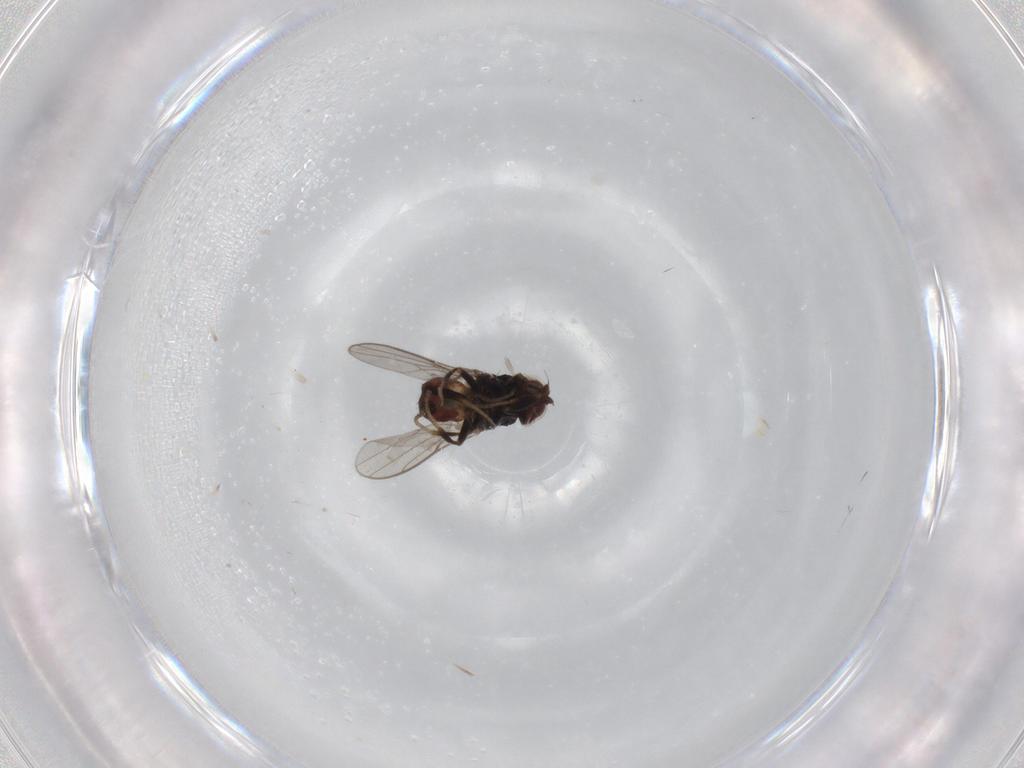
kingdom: Animalia
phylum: Arthropoda
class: Insecta
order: Diptera
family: Chloropidae
